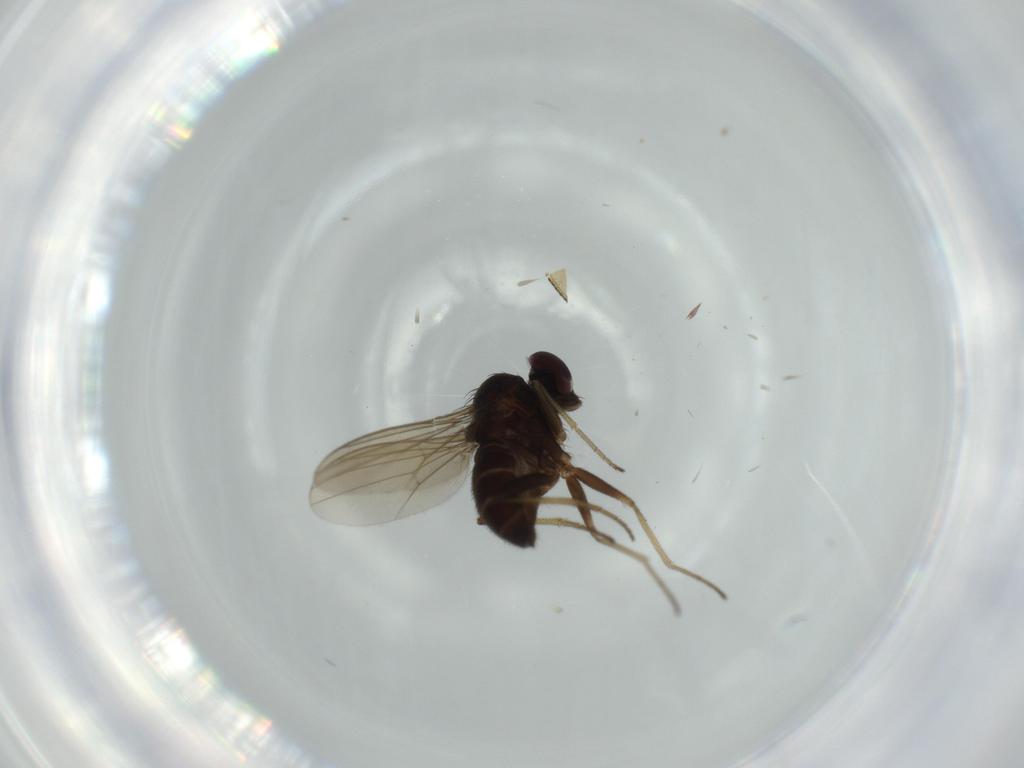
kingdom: Animalia
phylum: Arthropoda
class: Insecta
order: Diptera
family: Dolichopodidae
